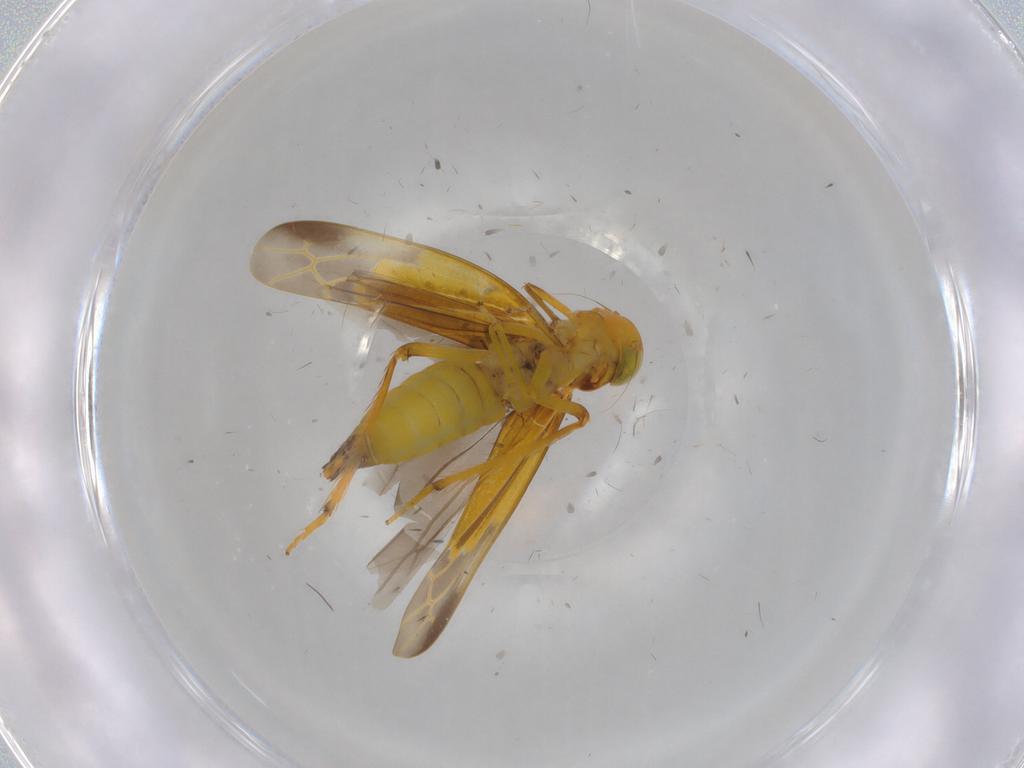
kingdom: Animalia
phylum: Arthropoda
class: Insecta
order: Hemiptera
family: Cicadellidae
